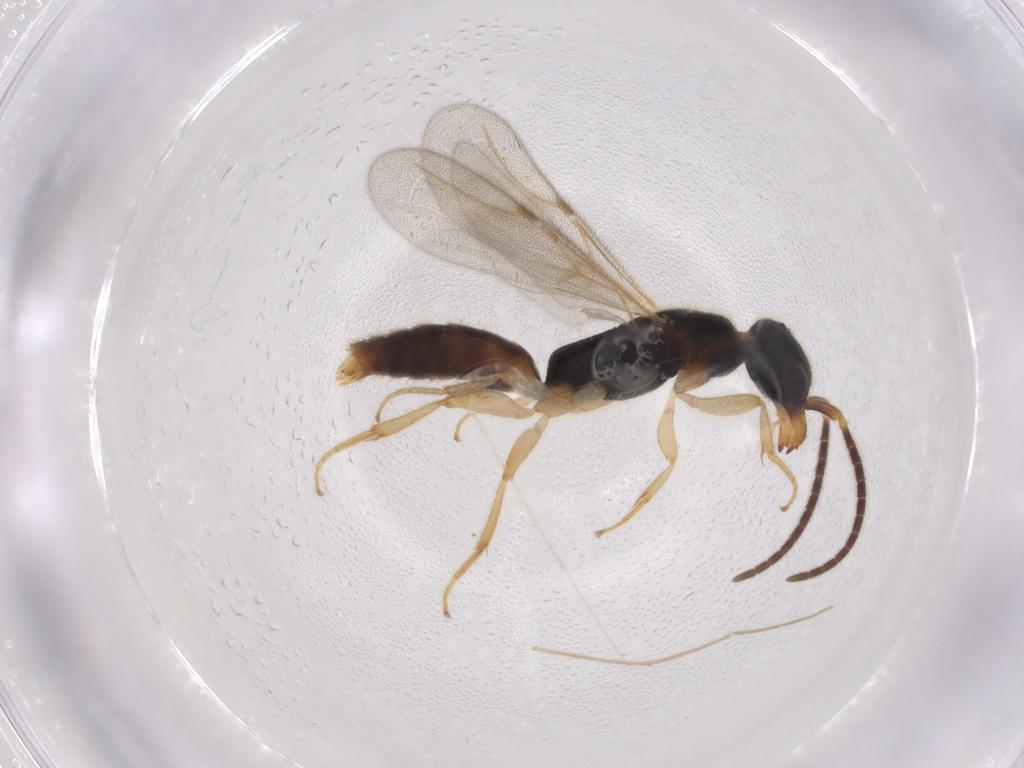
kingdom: Animalia
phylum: Arthropoda
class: Insecta
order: Hymenoptera
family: Bethylidae
